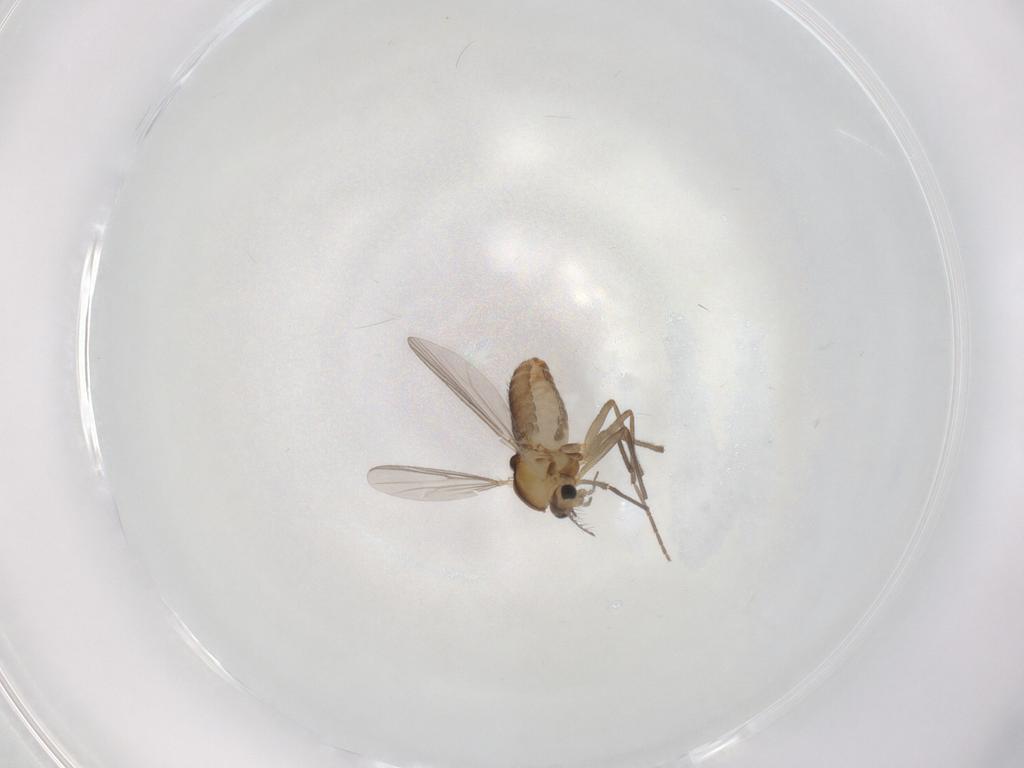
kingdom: Animalia
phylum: Arthropoda
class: Insecta
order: Diptera
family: Chironomidae
